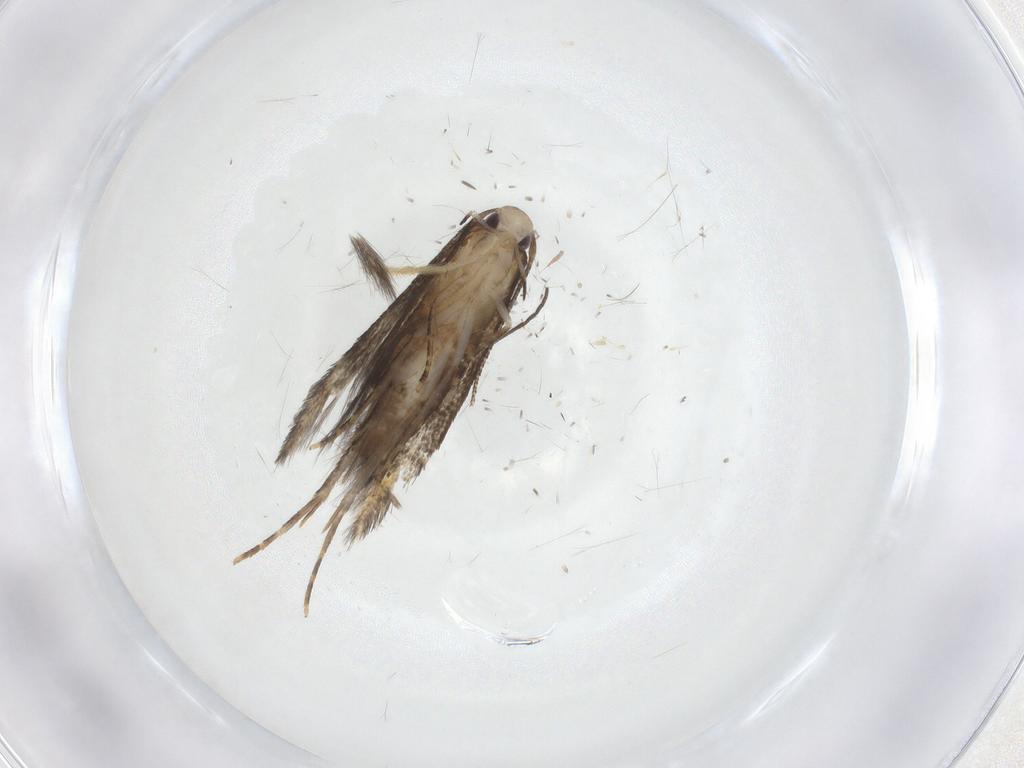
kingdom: Animalia
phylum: Arthropoda
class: Insecta
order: Lepidoptera
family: Cosmopterigidae
